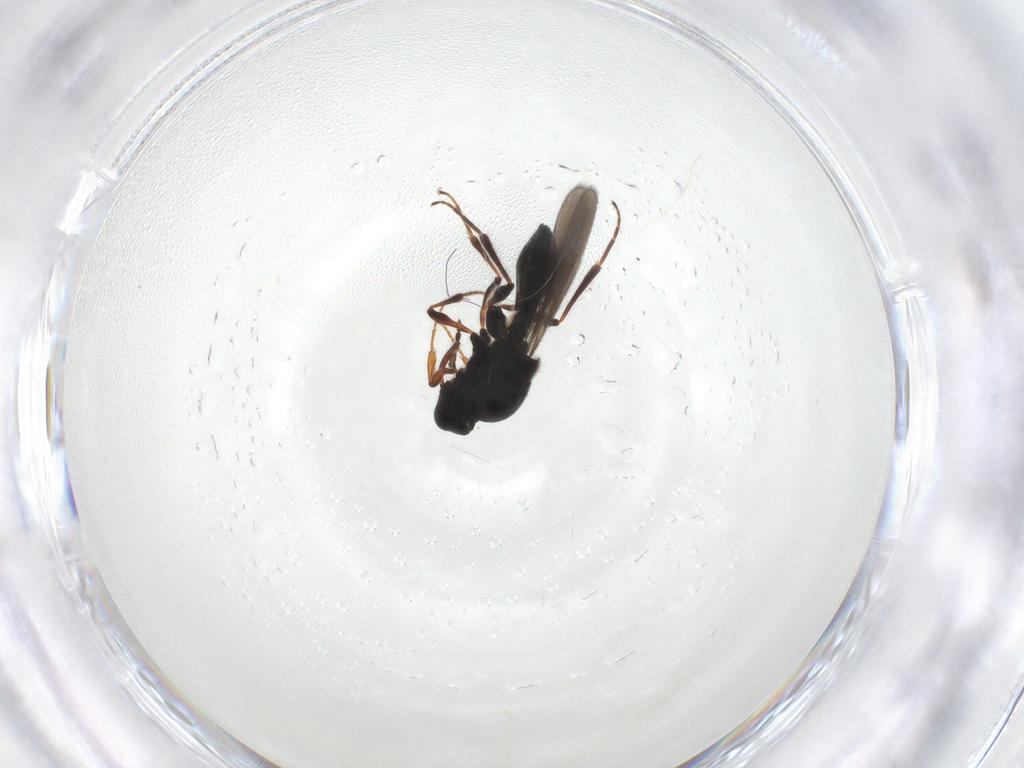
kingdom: Animalia
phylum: Arthropoda
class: Insecta
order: Hymenoptera
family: Platygastridae
